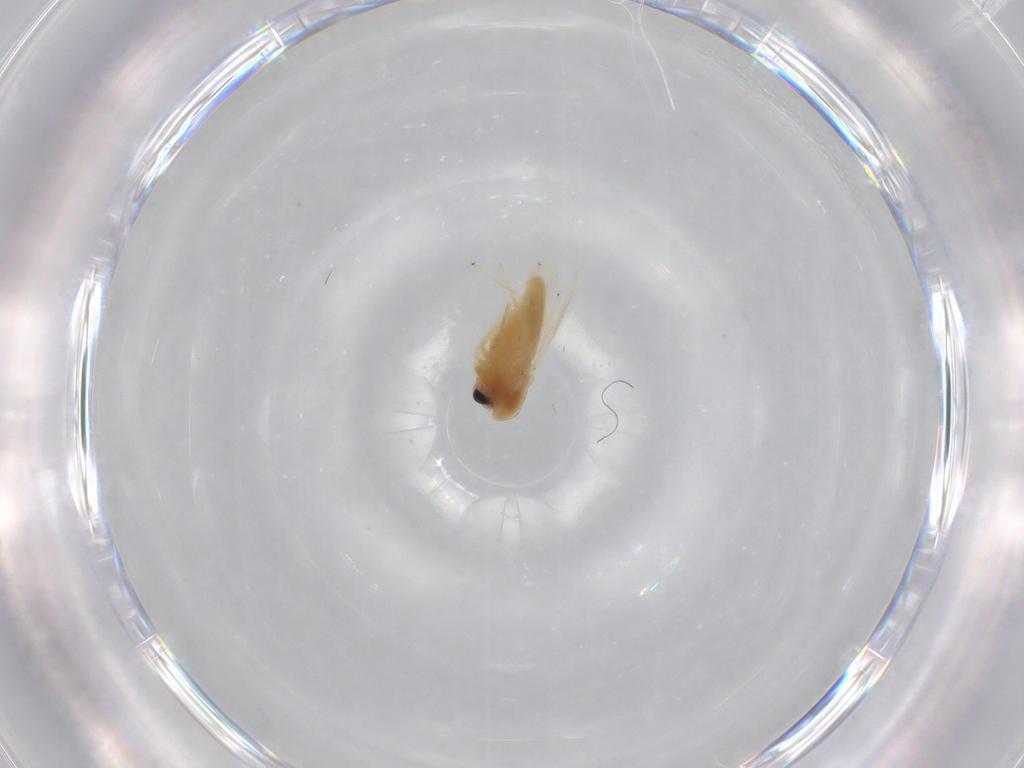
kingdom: Animalia
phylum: Arthropoda
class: Insecta
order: Diptera
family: Chironomidae
